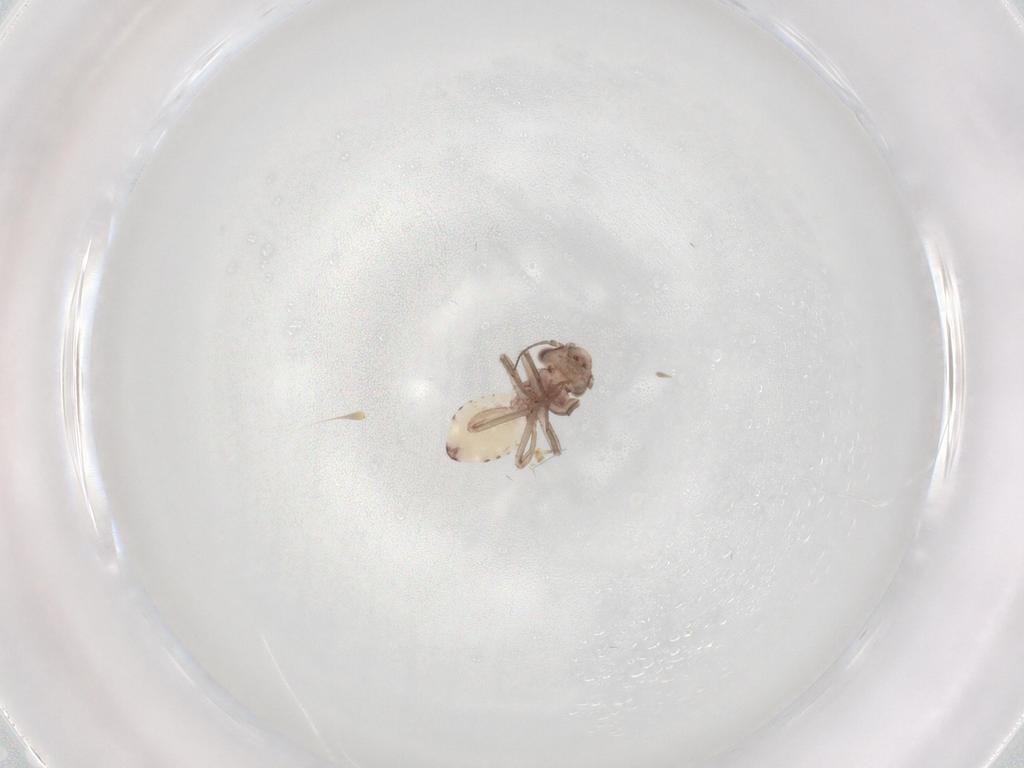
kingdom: Animalia
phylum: Arthropoda
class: Insecta
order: Psocodea
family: Lepidopsocidae
